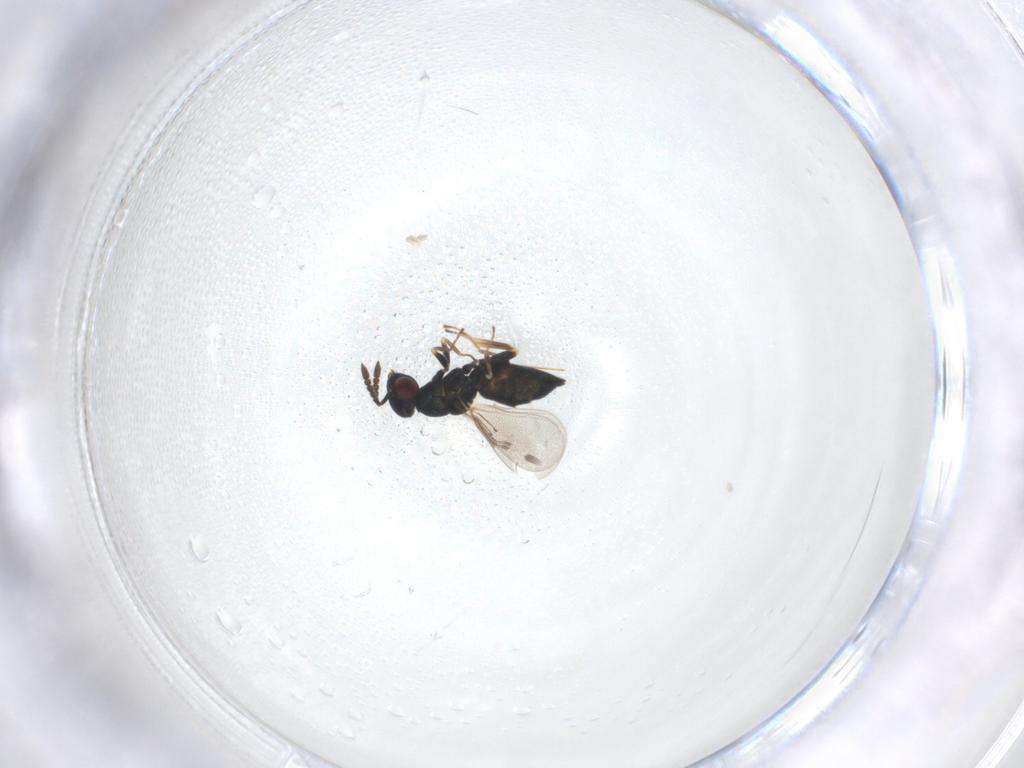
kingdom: Animalia
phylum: Arthropoda
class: Insecta
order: Hymenoptera
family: Eulophidae
